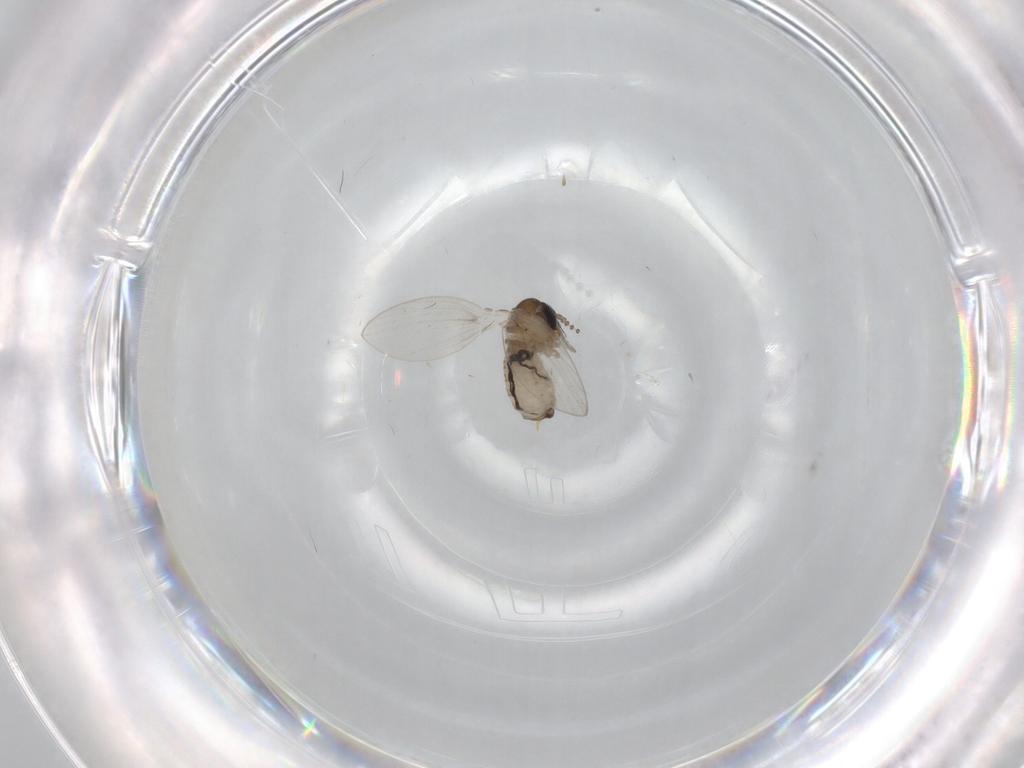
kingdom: Animalia
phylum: Arthropoda
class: Insecta
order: Diptera
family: Psychodidae
